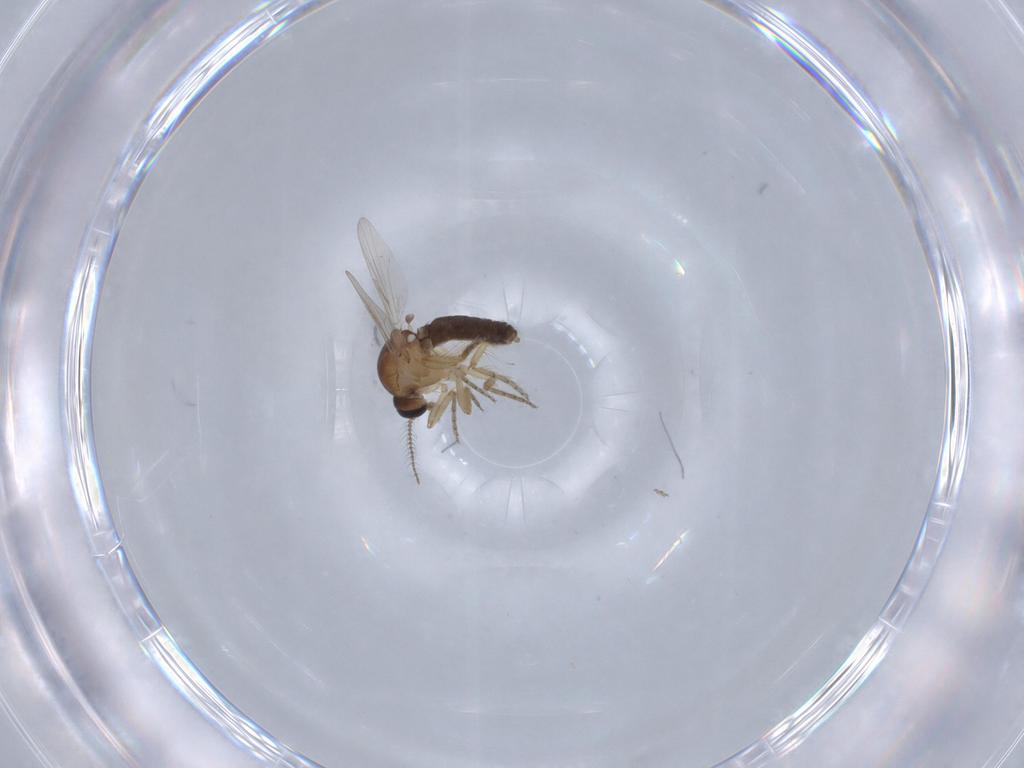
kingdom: Animalia
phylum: Arthropoda
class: Insecta
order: Diptera
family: Ceratopogonidae
